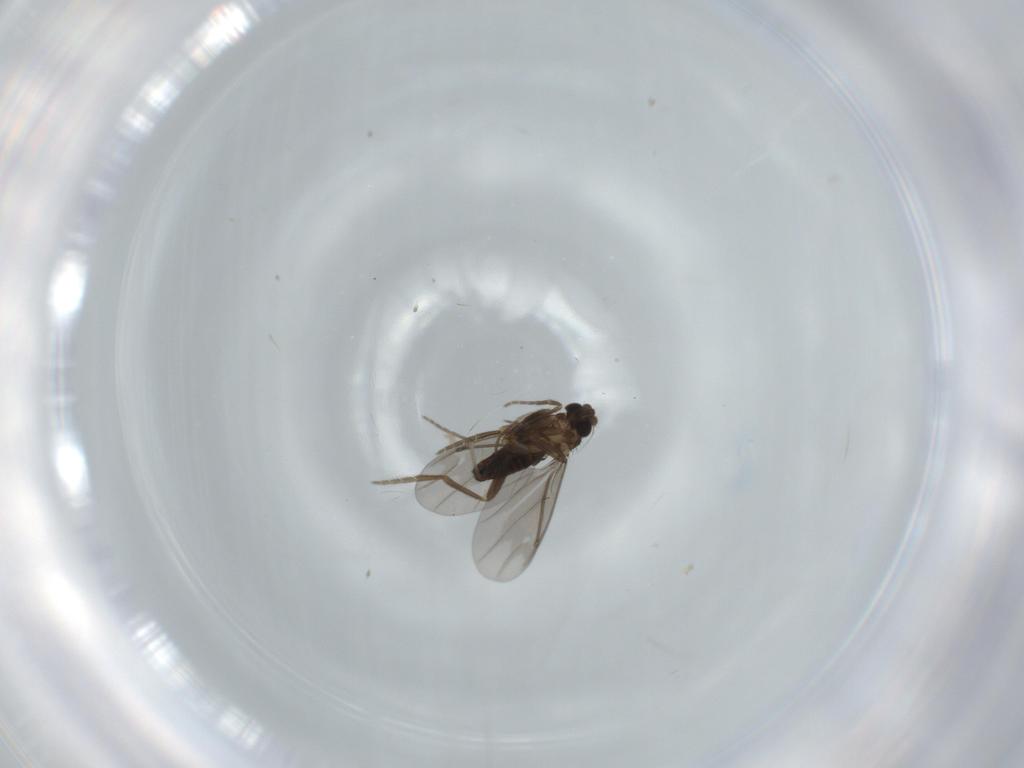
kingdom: Animalia
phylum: Arthropoda
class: Insecta
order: Diptera
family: Phoridae
